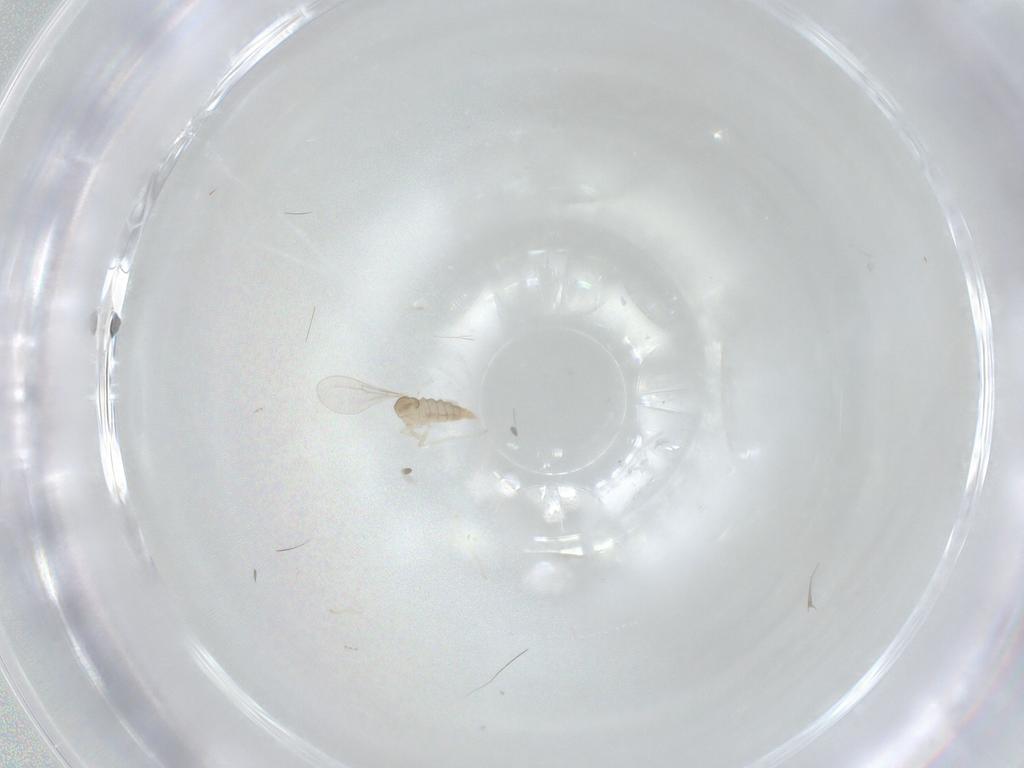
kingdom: Animalia
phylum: Arthropoda
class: Insecta
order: Diptera
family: Cecidomyiidae
